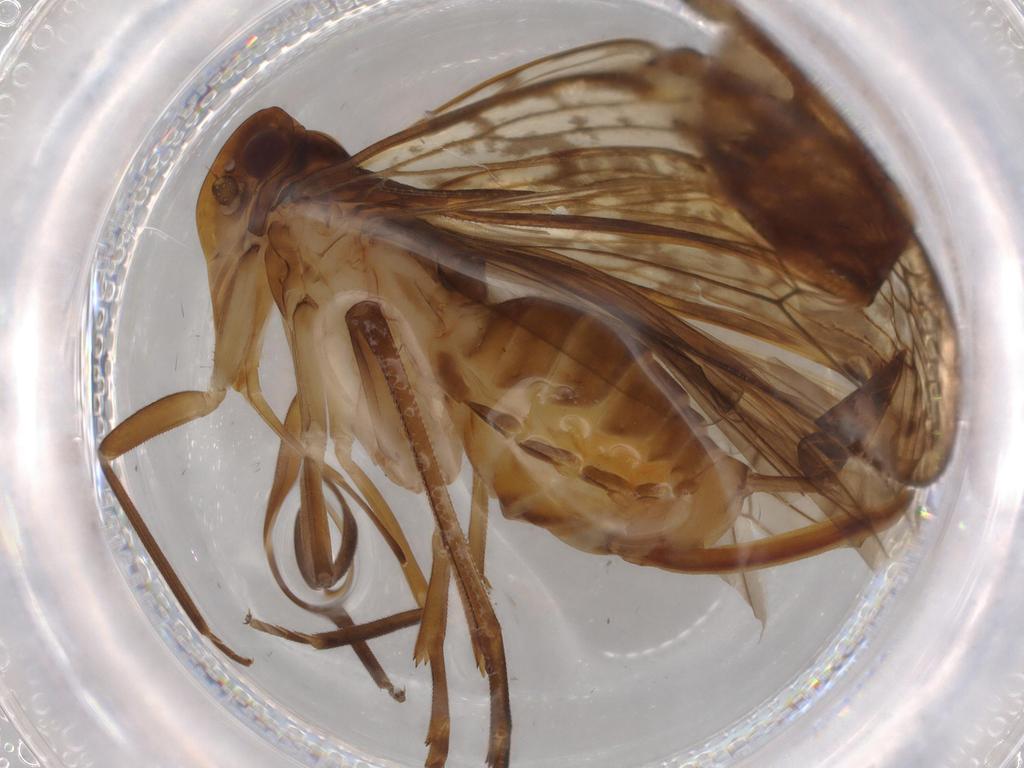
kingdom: Animalia
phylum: Arthropoda
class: Insecta
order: Hemiptera
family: Cixiidae
